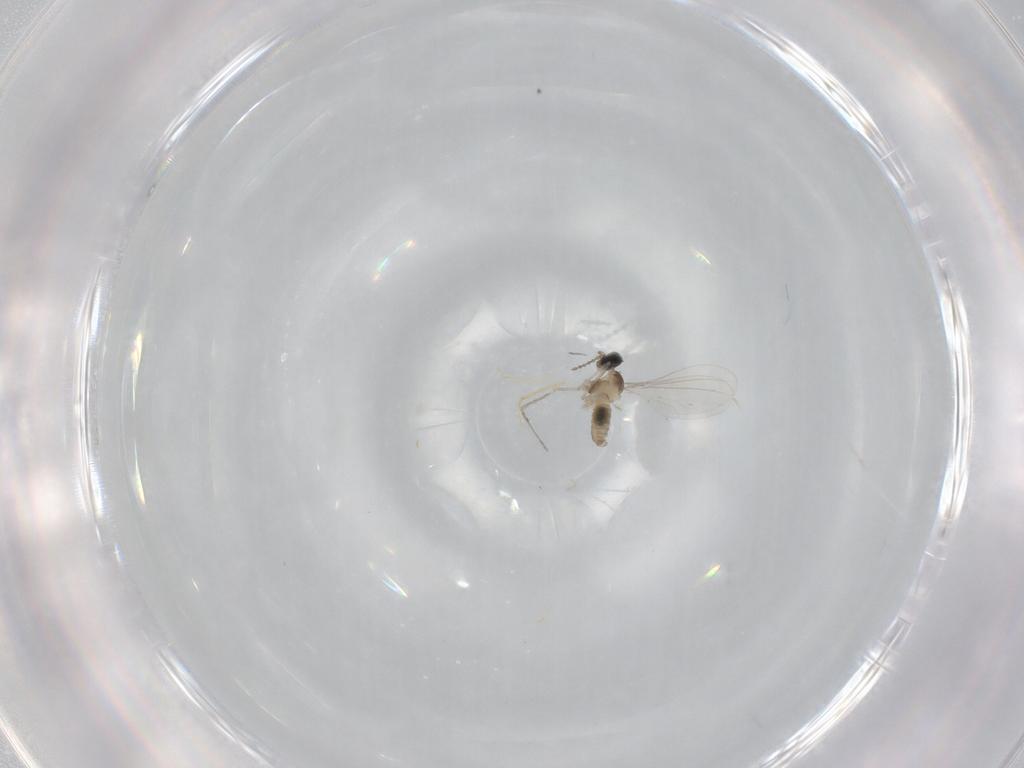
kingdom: Animalia
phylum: Arthropoda
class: Insecta
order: Diptera
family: Cecidomyiidae
